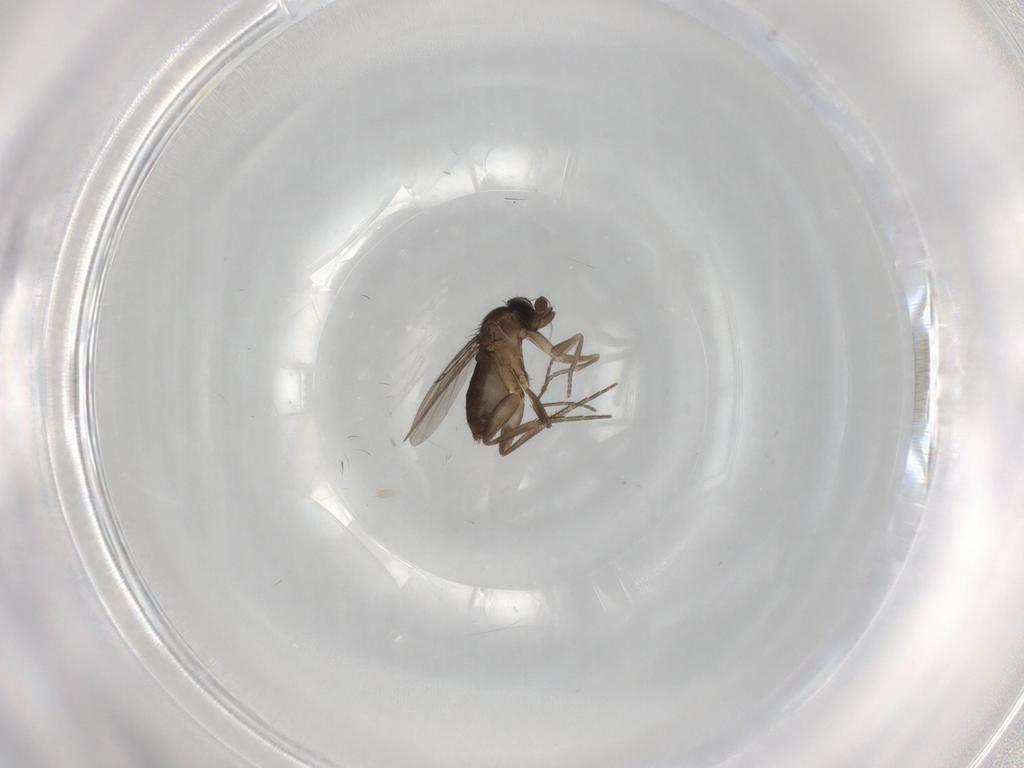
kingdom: Animalia
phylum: Arthropoda
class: Insecta
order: Diptera
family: Phoridae
